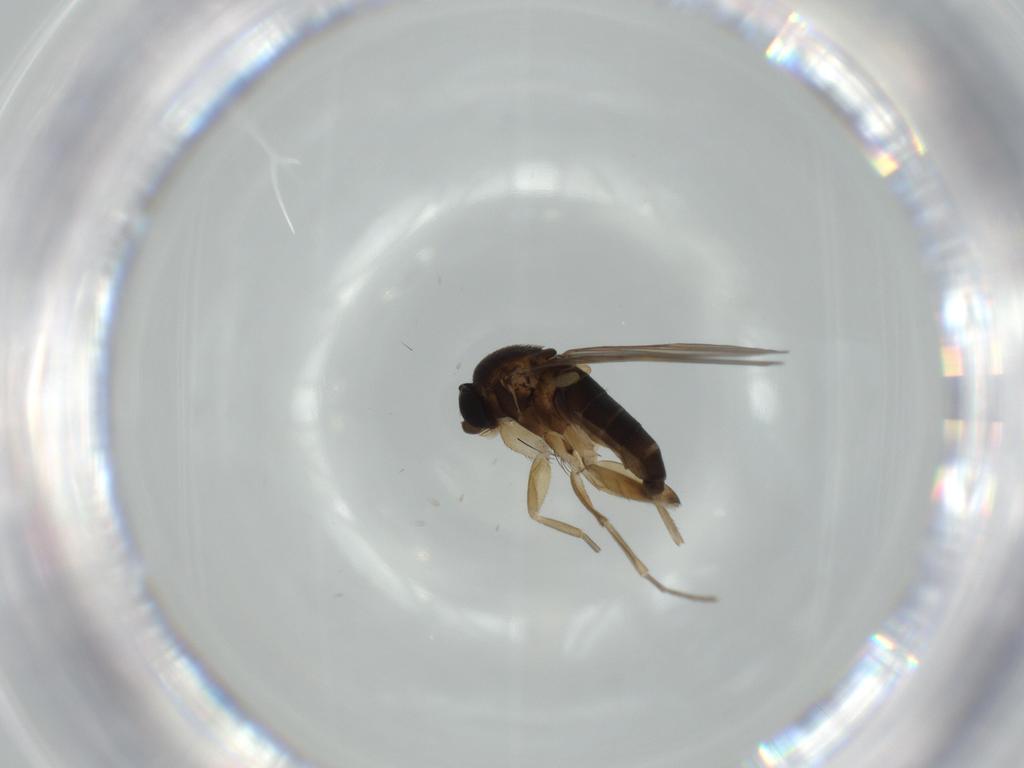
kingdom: Animalia
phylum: Arthropoda
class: Insecta
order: Diptera
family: Phoridae
